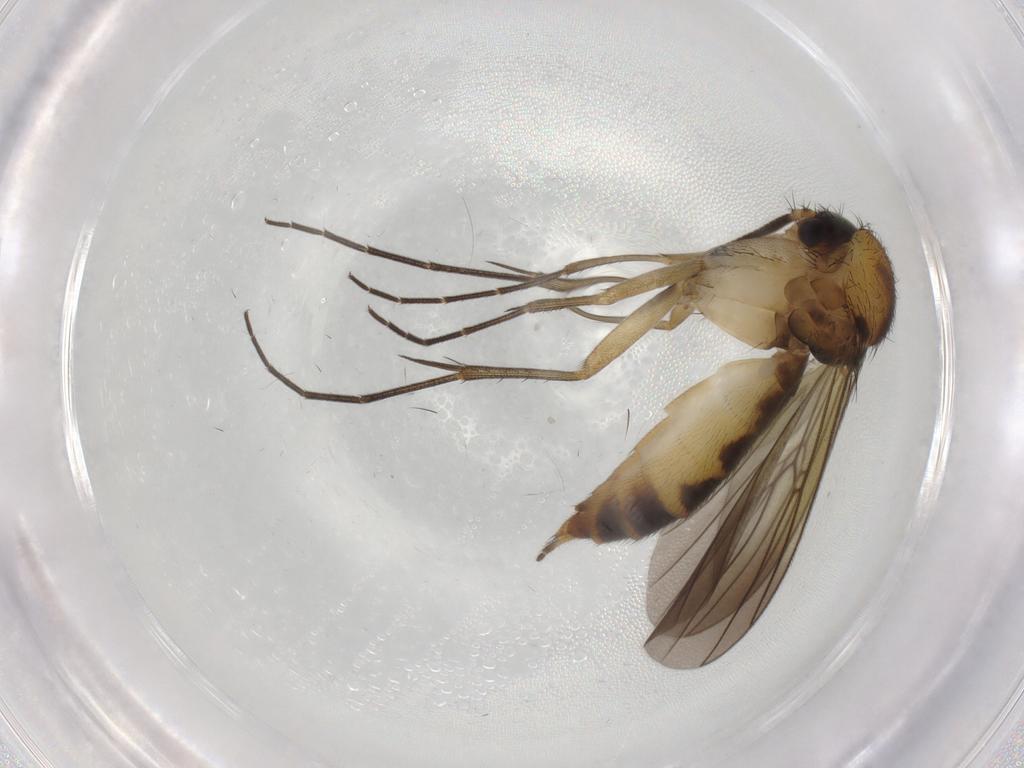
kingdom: Animalia
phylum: Arthropoda
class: Insecta
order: Diptera
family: Mycetophilidae
